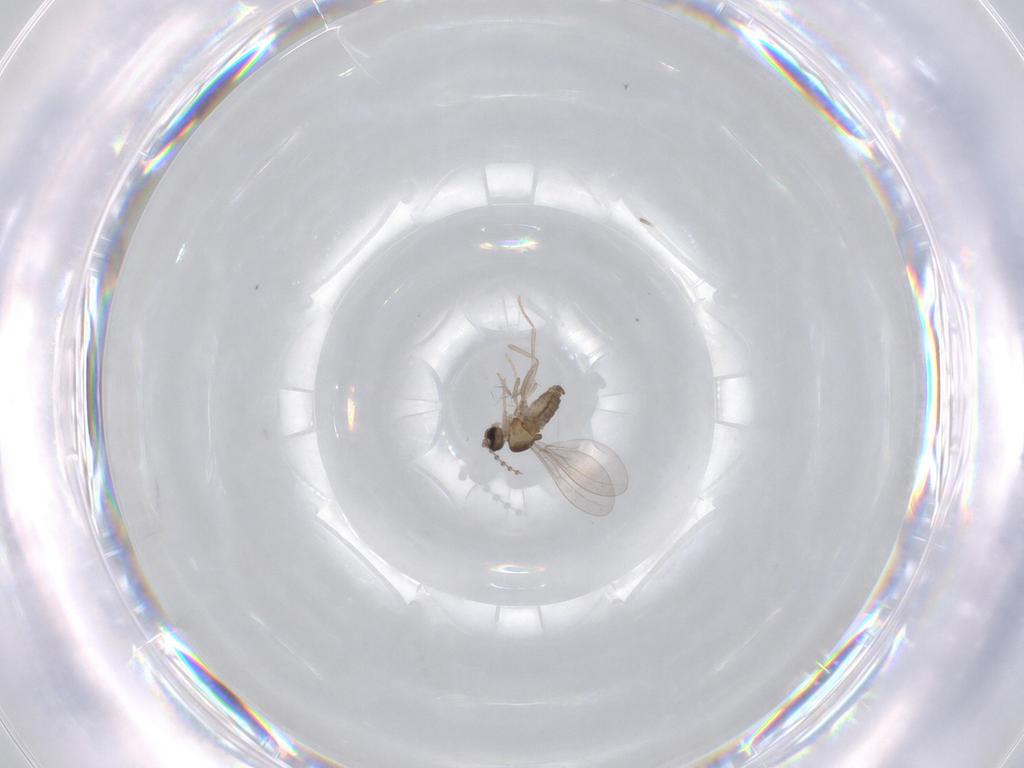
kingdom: Animalia
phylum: Arthropoda
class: Insecta
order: Diptera
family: Cecidomyiidae
